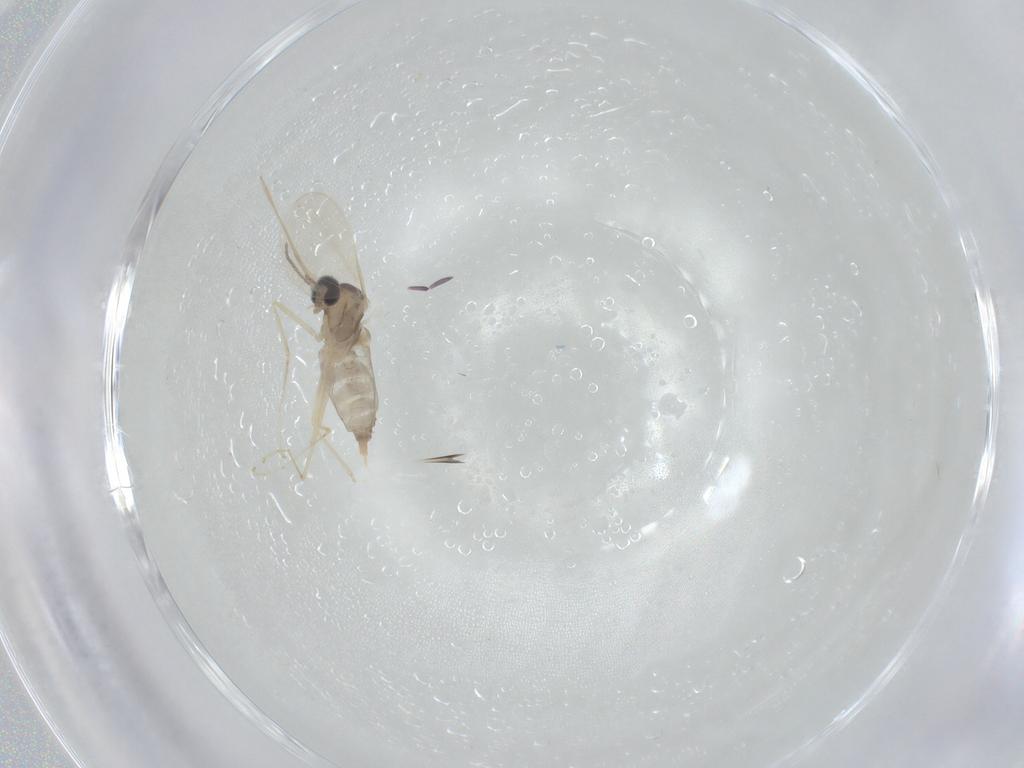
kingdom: Animalia
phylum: Arthropoda
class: Insecta
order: Diptera
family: Cecidomyiidae
